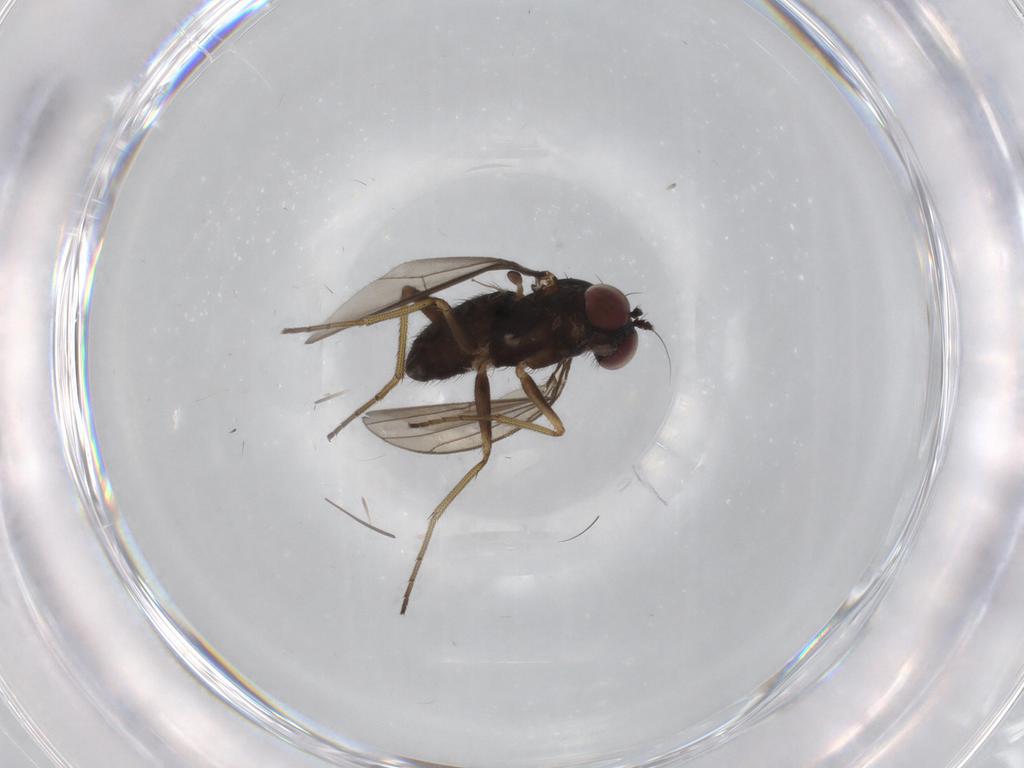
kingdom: Animalia
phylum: Arthropoda
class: Insecta
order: Diptera
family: Dolichopodidae
